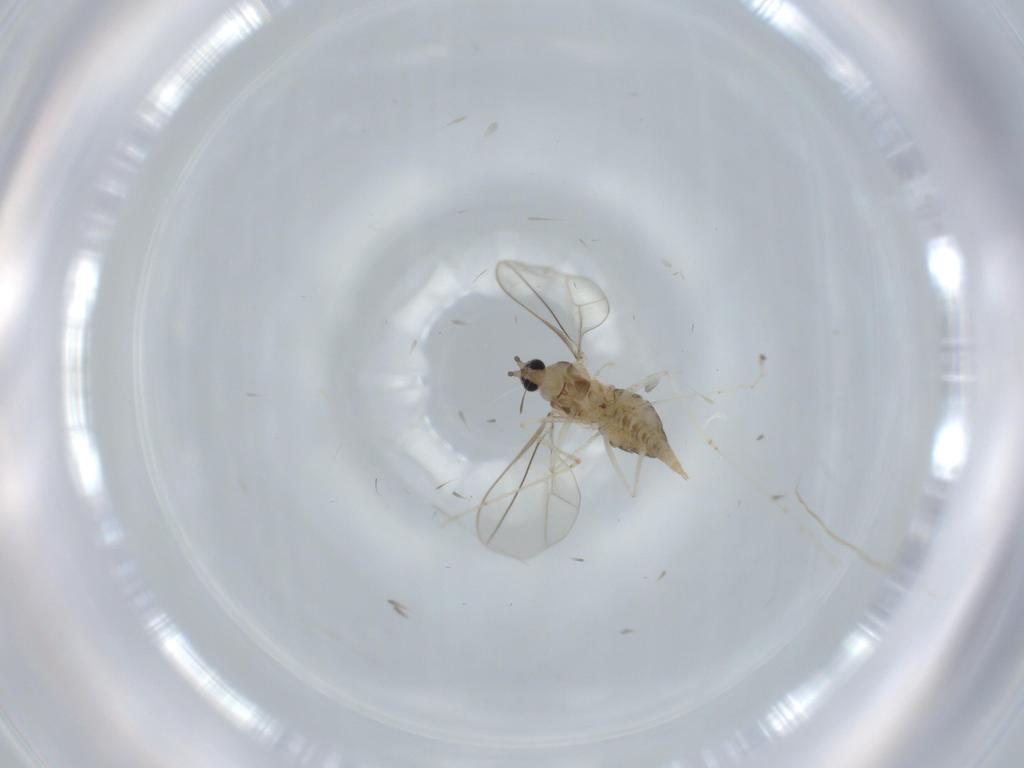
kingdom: Animalia
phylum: Arthropoda
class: Insecta
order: Diptera
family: Cecidomyiidae
